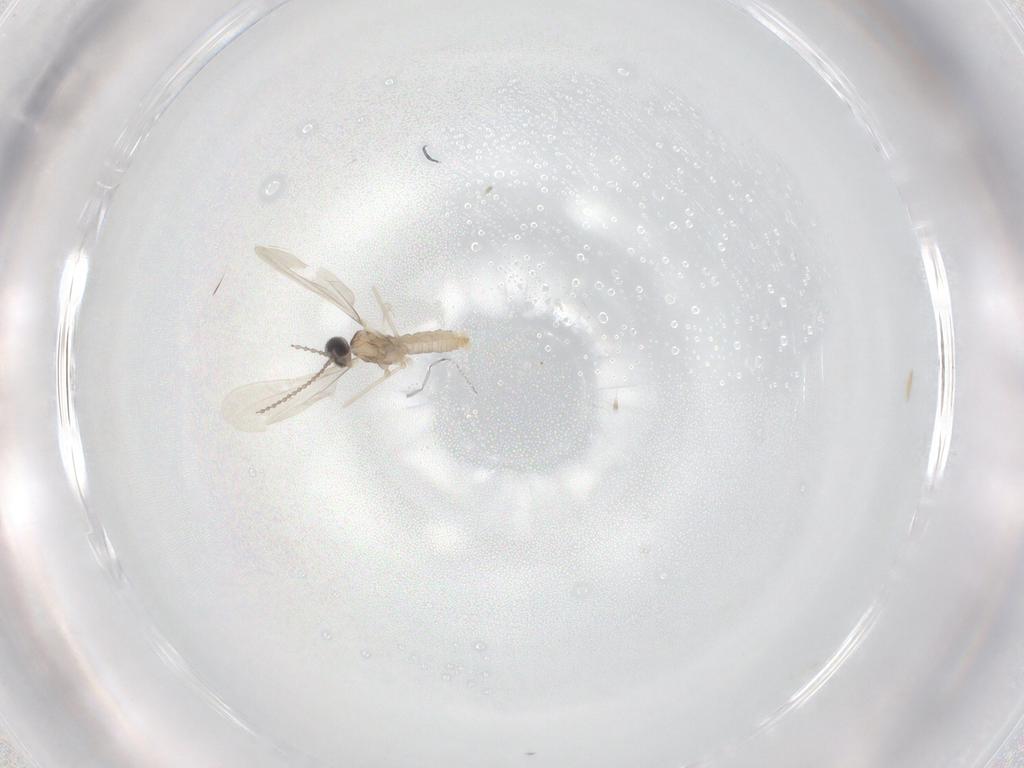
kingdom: Animalia
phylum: Arthropoda
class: Insecta
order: Diptera
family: Cecidomyiidae
